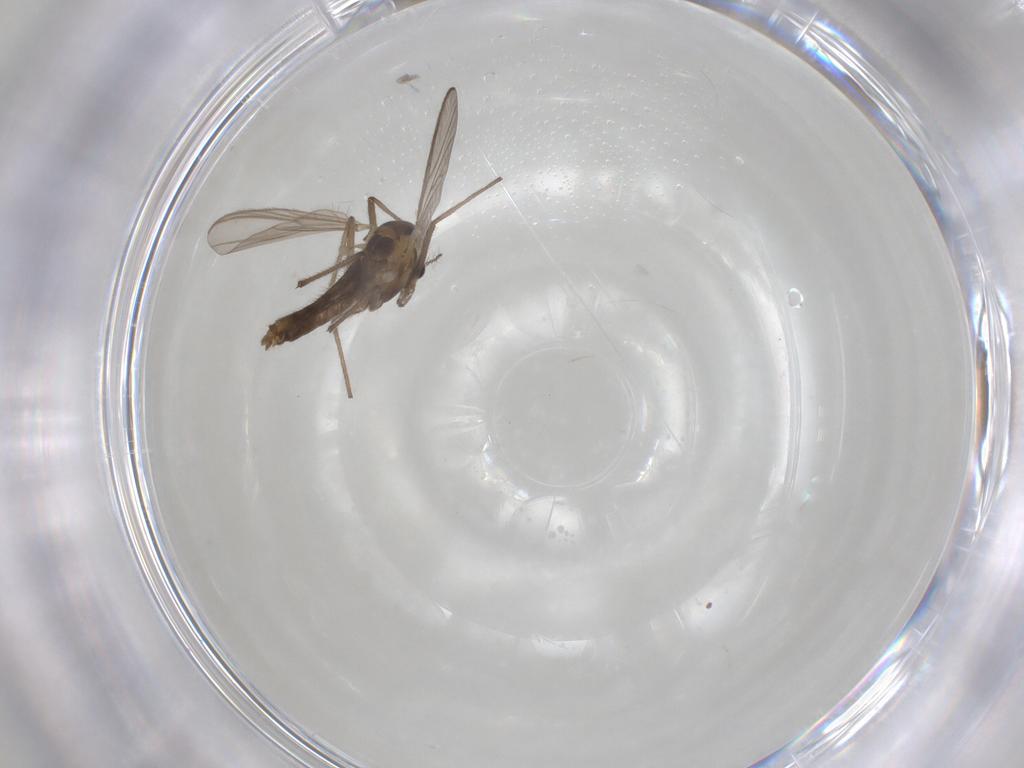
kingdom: Animalia
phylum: Arthropoda
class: Insecta
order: Diptera
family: Chironomidae
